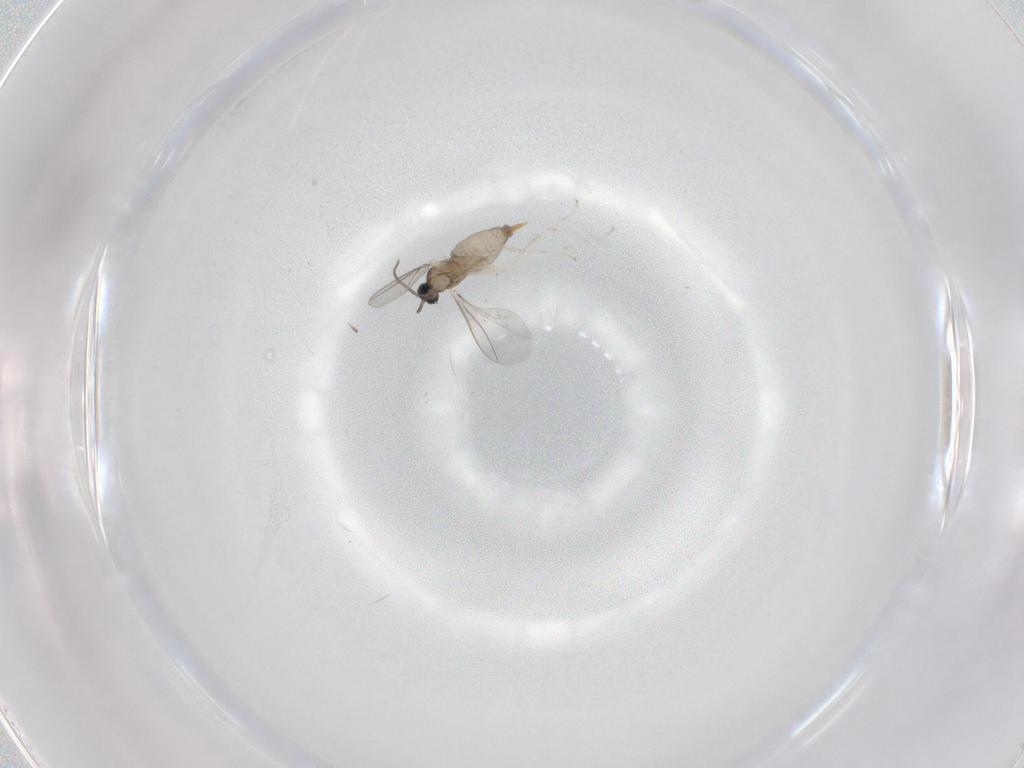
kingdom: Animalia
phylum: Arthropoda
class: Insecta
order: Diptera
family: Cecidomyiidae
